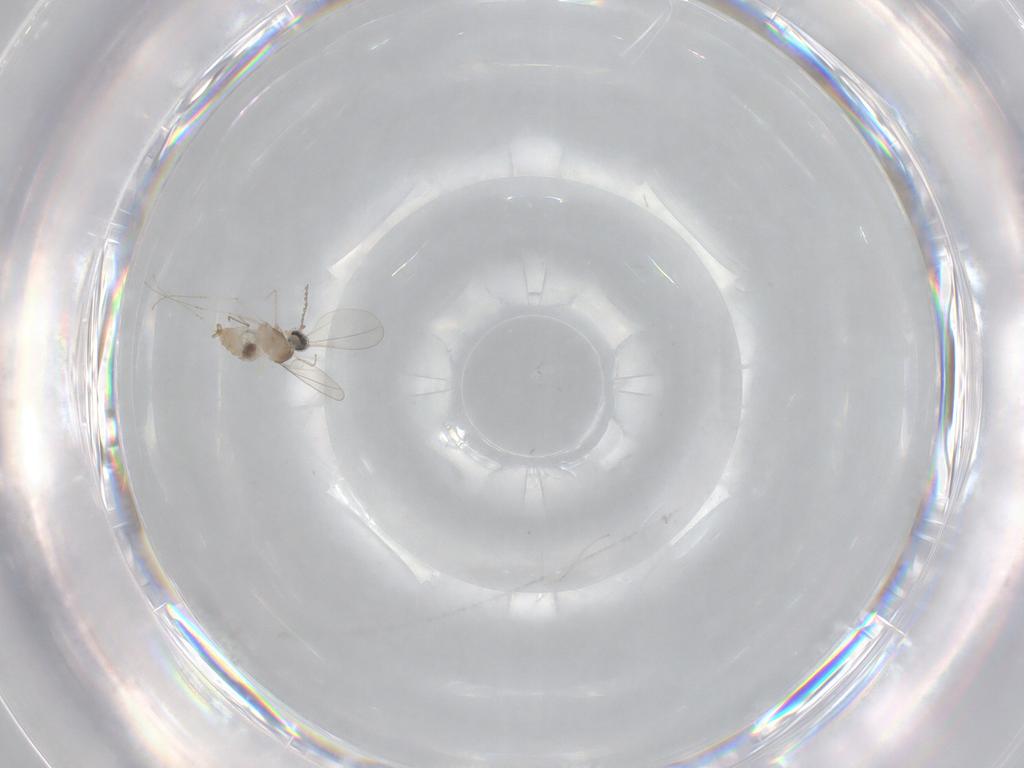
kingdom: Animalia
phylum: Arthropoda
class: Insecta
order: Diptera
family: Cecidomyiidae
